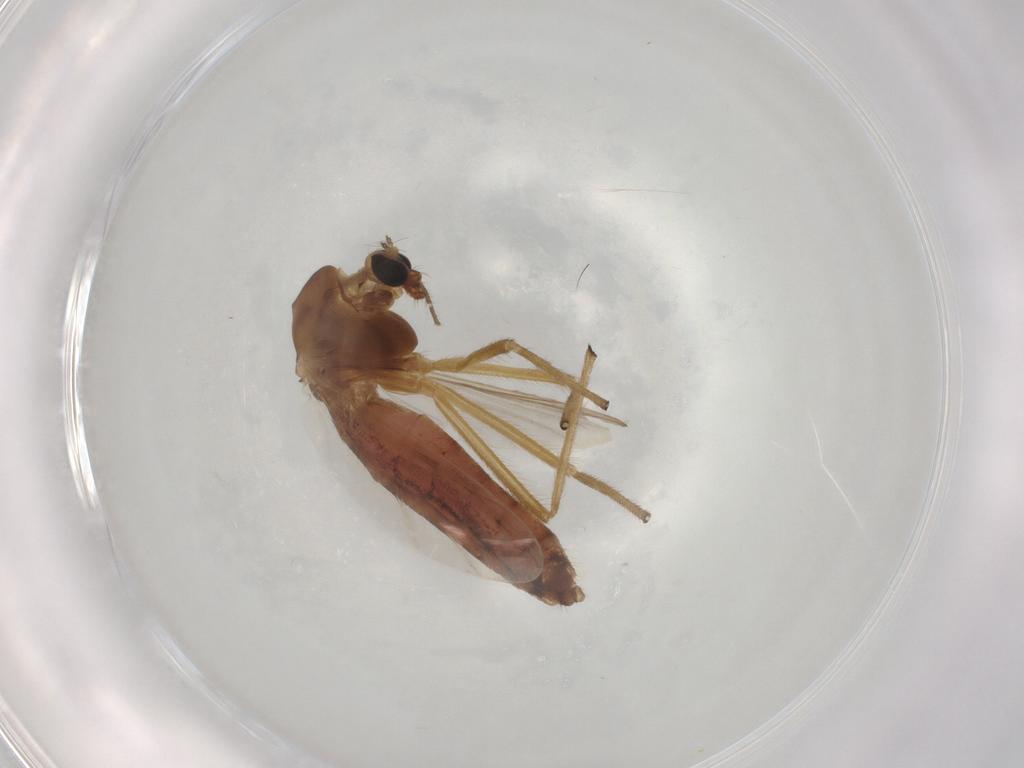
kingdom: Animalia
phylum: Arthropoda
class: Insecta
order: Diptera
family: Chironomidae
